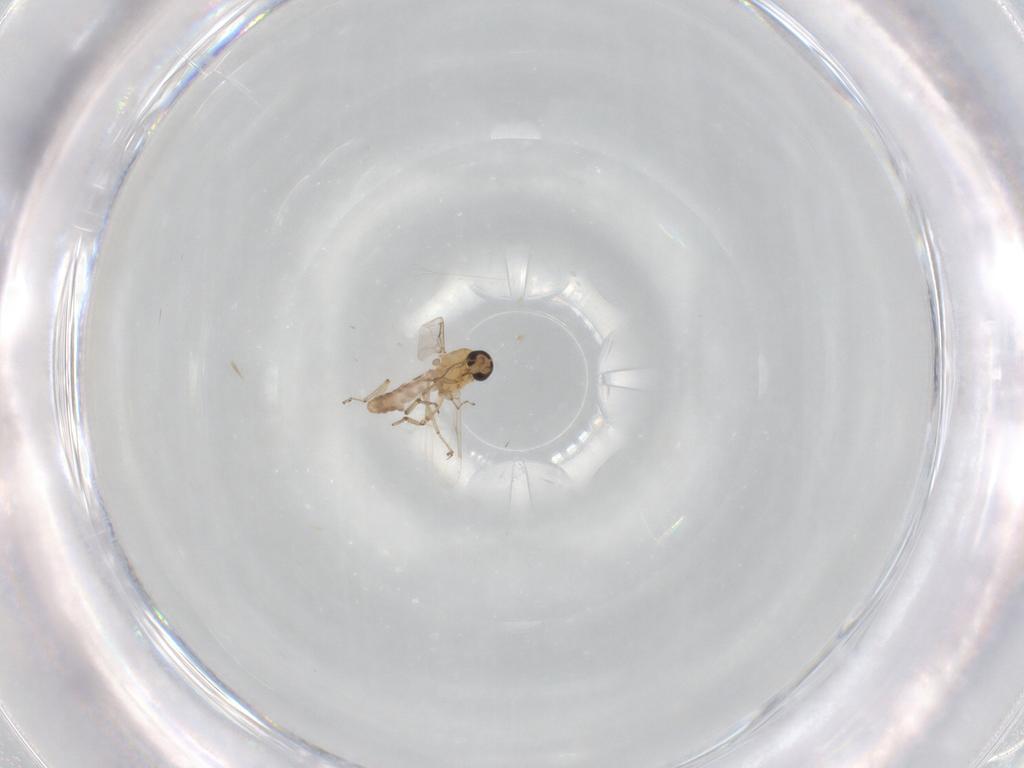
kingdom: Animalia
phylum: Arthropoda
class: Insecta
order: Diptera
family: Ceratopogonidae
